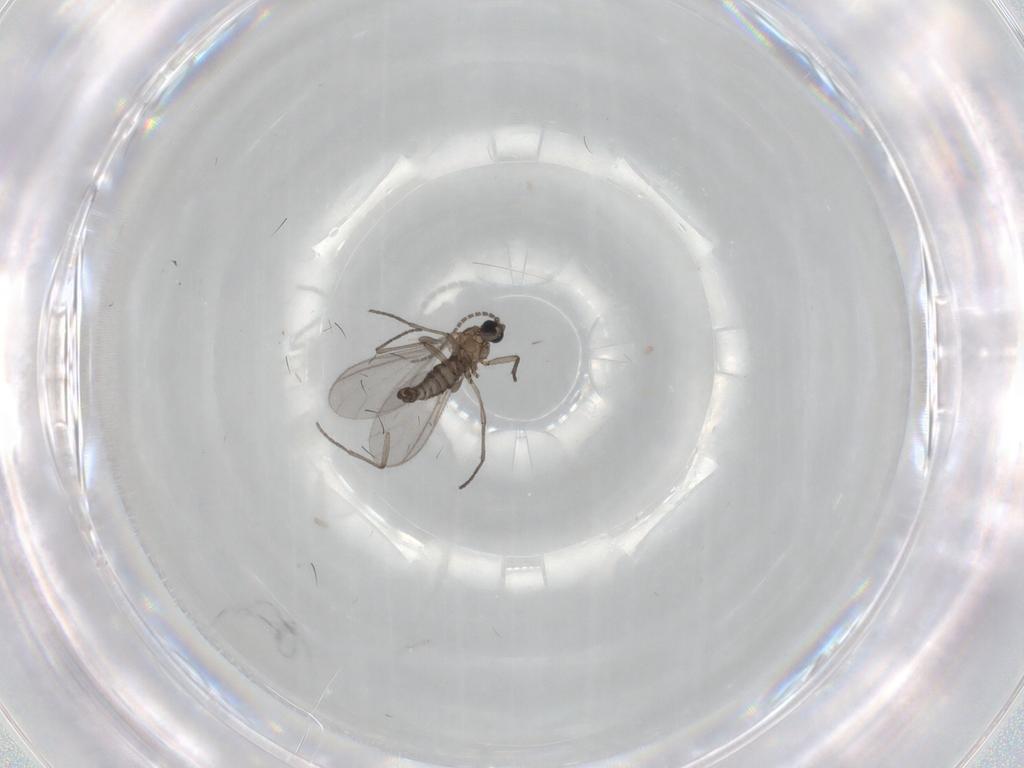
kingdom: Animalia
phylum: Arthropoda
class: Insecta
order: Diptera
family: Sciaridae
